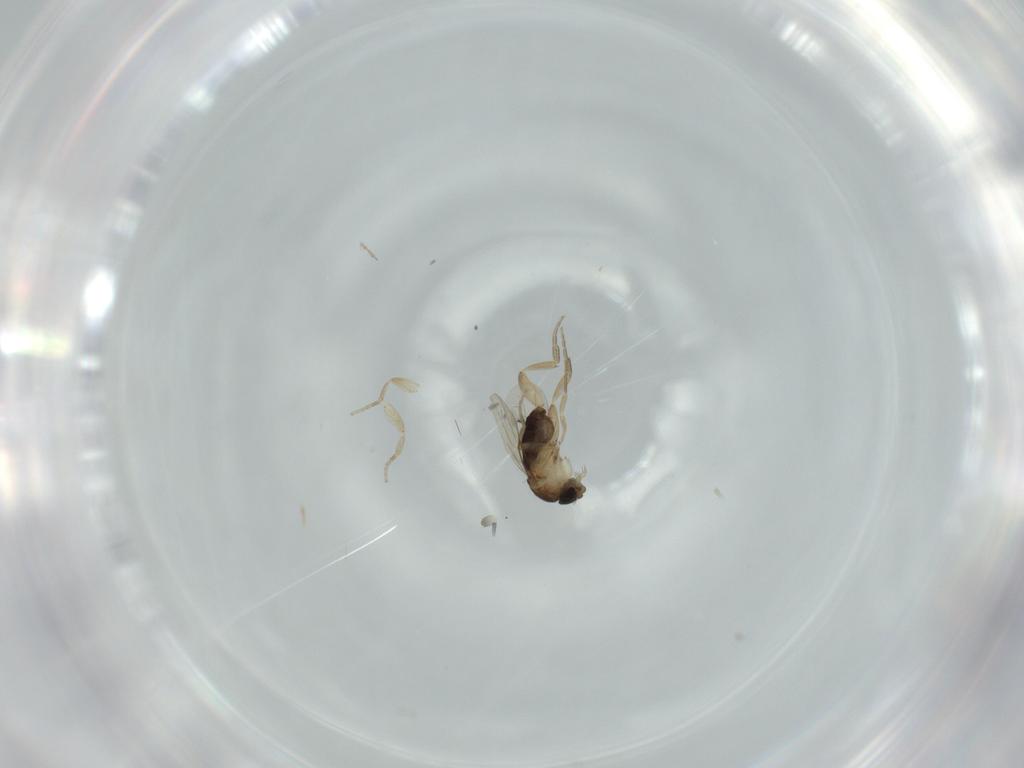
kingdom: Animalia
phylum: Arthropoda
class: Insecta
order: Diptera
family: Phoridae
